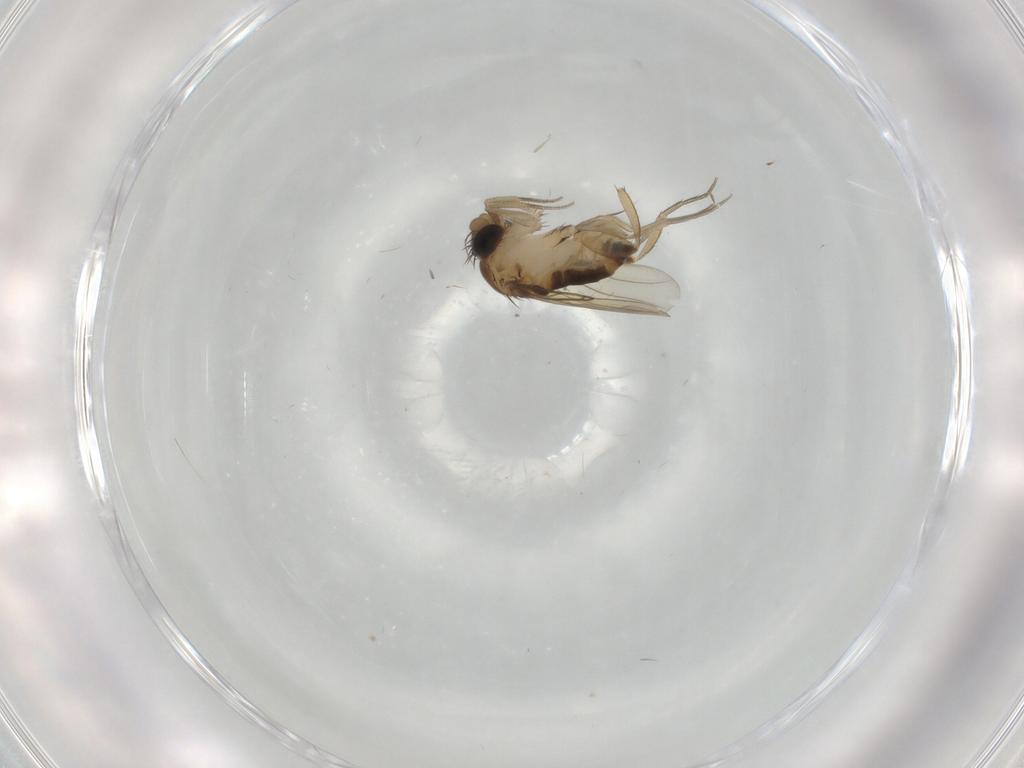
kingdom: Animalia
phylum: Arthropoda
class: Insecta
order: Diptera
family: Phoridae
